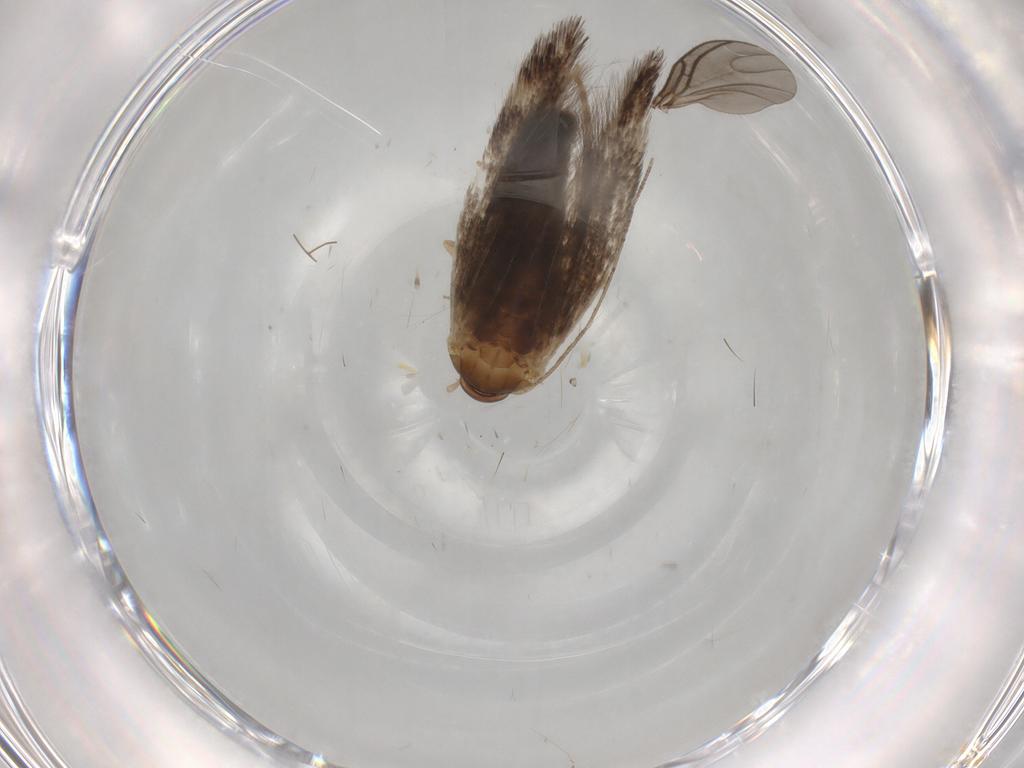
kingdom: Animalia
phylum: Arthropoda
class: Insecta
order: Lepidoptera
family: Elachistidae
